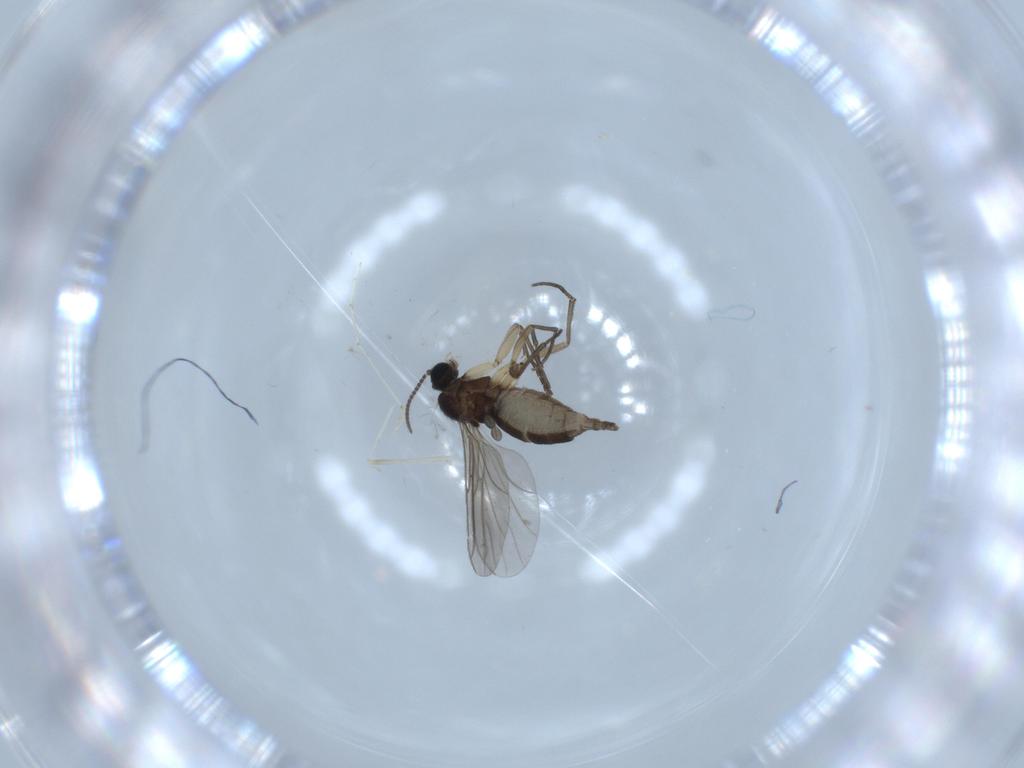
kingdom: Animalia
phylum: Arthropoda
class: Insecta
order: Diptera
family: Sciaridae
